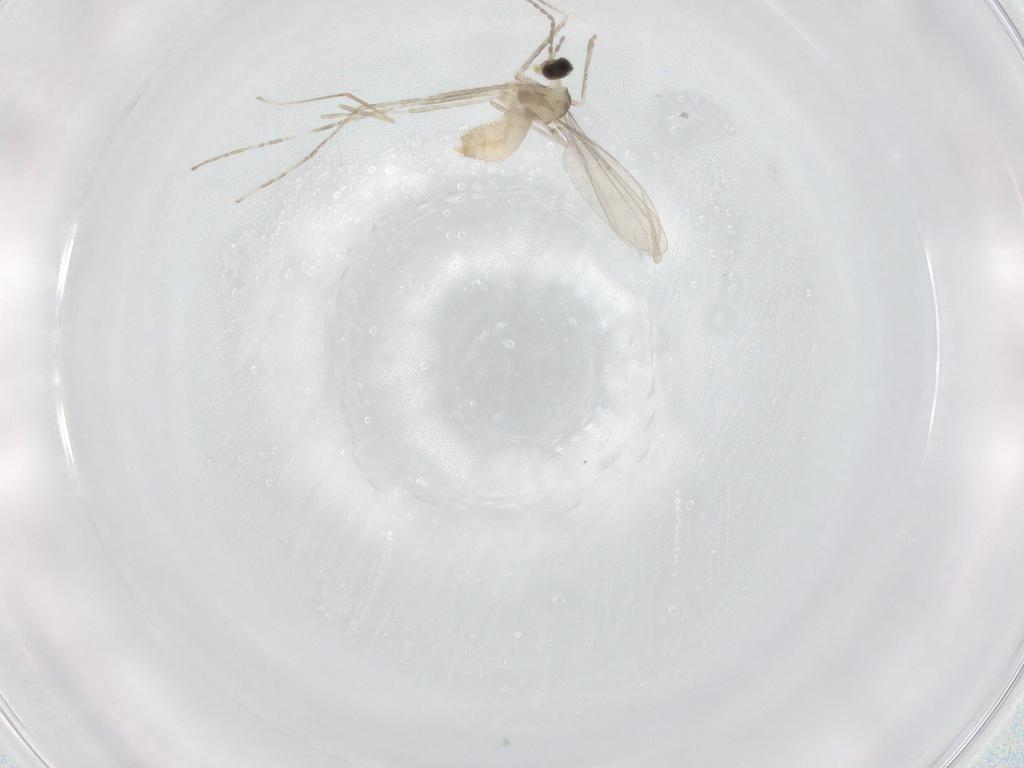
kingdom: Animalia
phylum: Arthropoda
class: Insecta
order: Diptera
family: Cecidomyiidae
